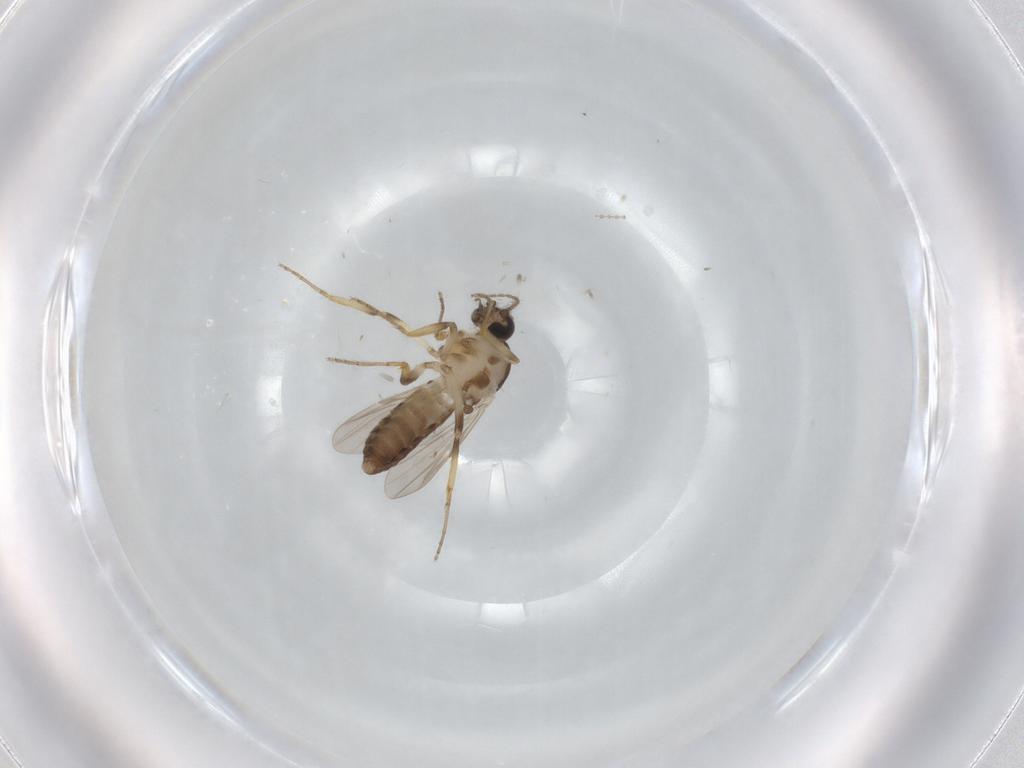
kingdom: Animalia
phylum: Arthropoda
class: Insecta
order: Diptera
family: Ceratopogonidae
